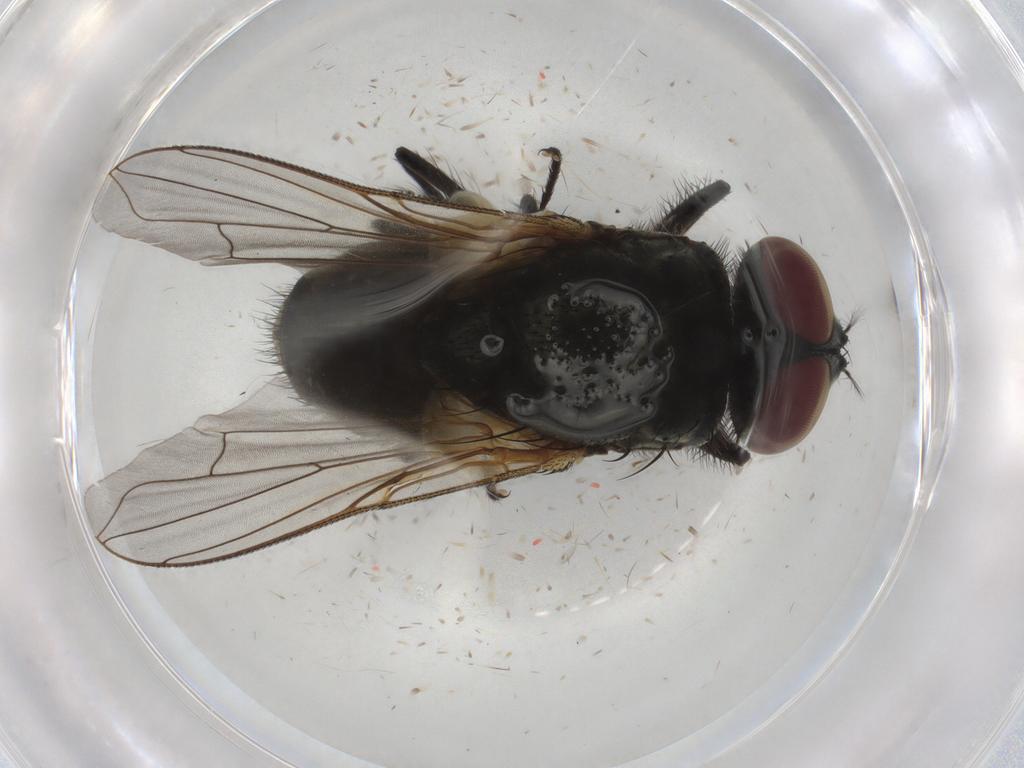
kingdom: Animalia
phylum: Arthropoda
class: Insecta
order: Diptera
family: Muscidae
